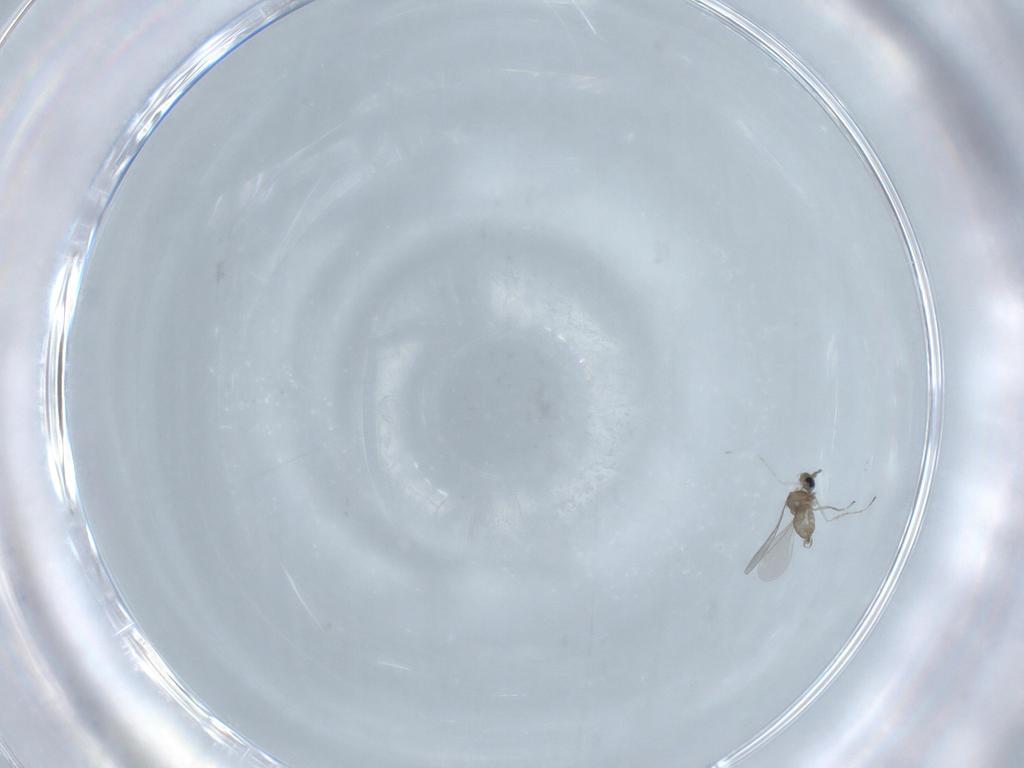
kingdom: Animalia
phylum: Arthropoda
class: Insecta
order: Diptera
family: Cecidomyiidae
